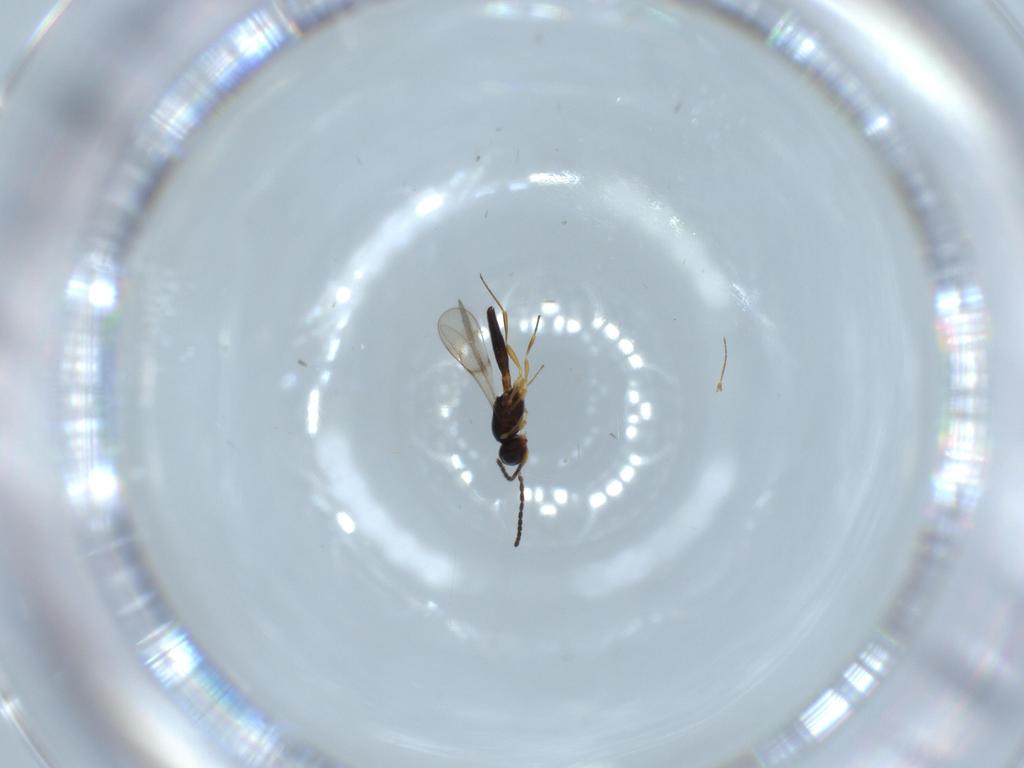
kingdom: Animalia
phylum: Arthropoda
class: Insecta
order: Hymenoptera
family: Scelionidae
